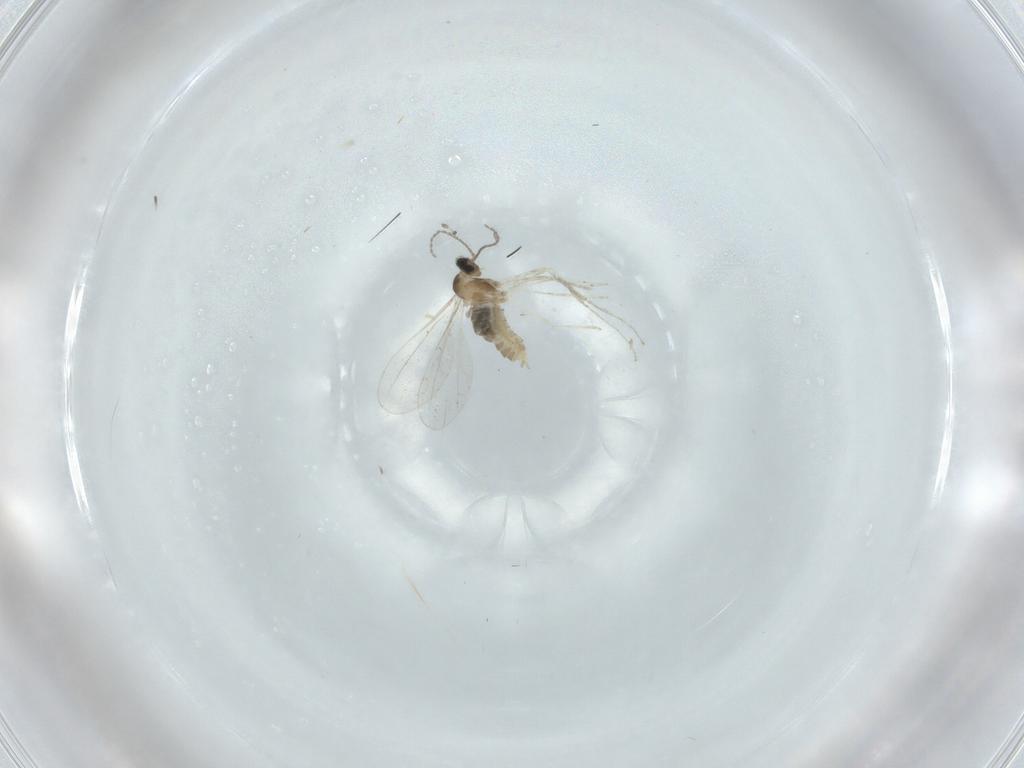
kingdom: Animalia
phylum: Arthropoda
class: Insecta
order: Diptera
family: Cecidomyiidae
